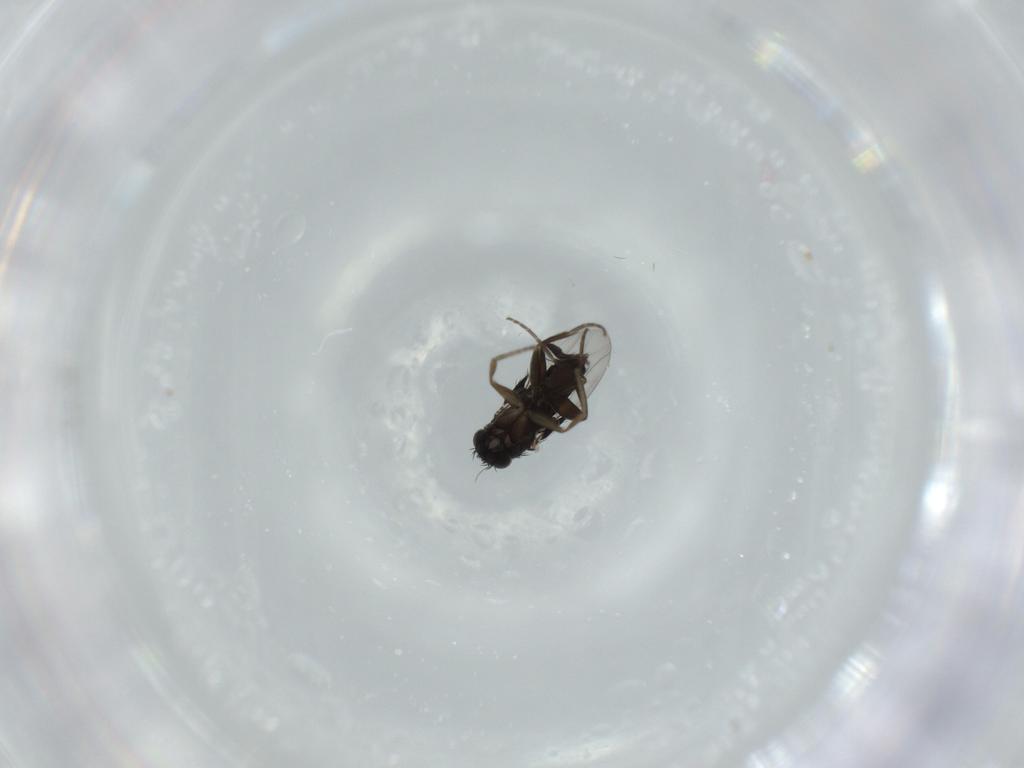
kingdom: Animalia
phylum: Arthropoda
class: Insecta
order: Diptera
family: Phoridae
